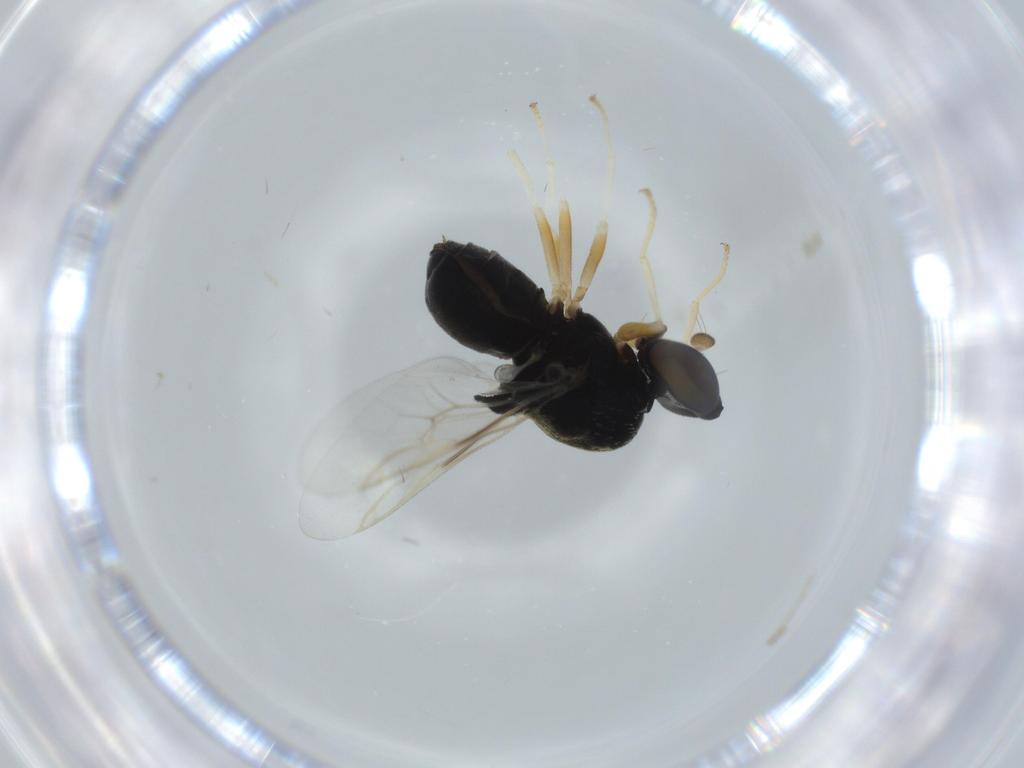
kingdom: Animalia
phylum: Arthropoda
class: Insecta
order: Diptera
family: Stratiomyidae
